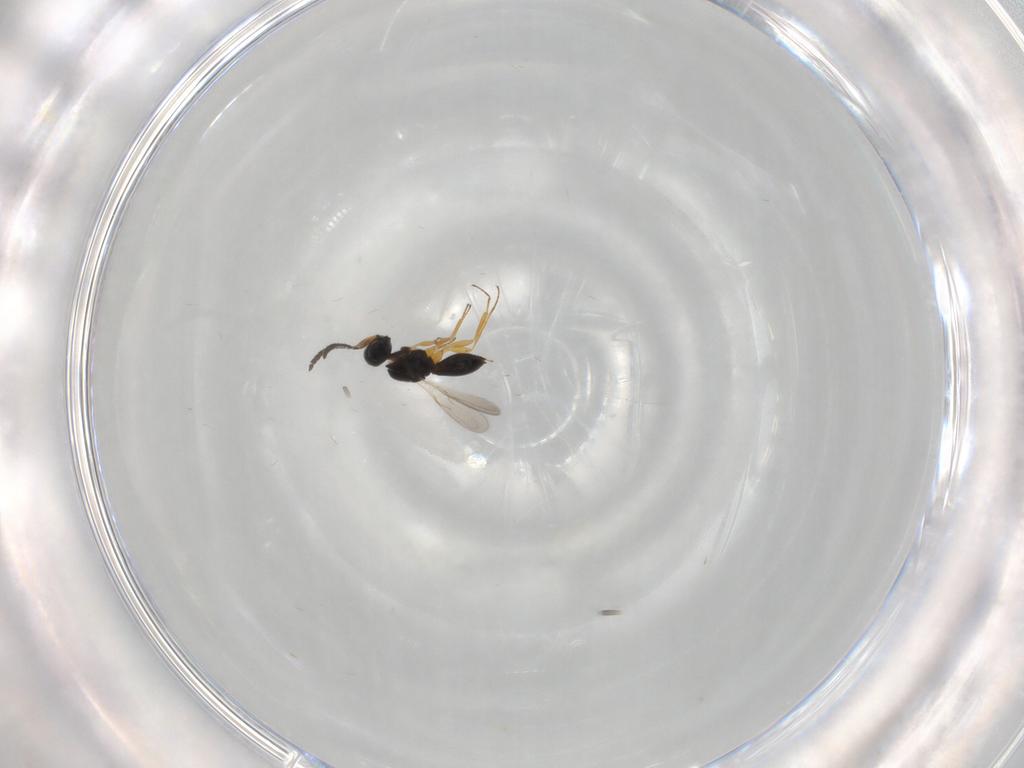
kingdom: Animalia
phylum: Arthropoda
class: Insecta
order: Hymenoptera
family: Scelionidae
